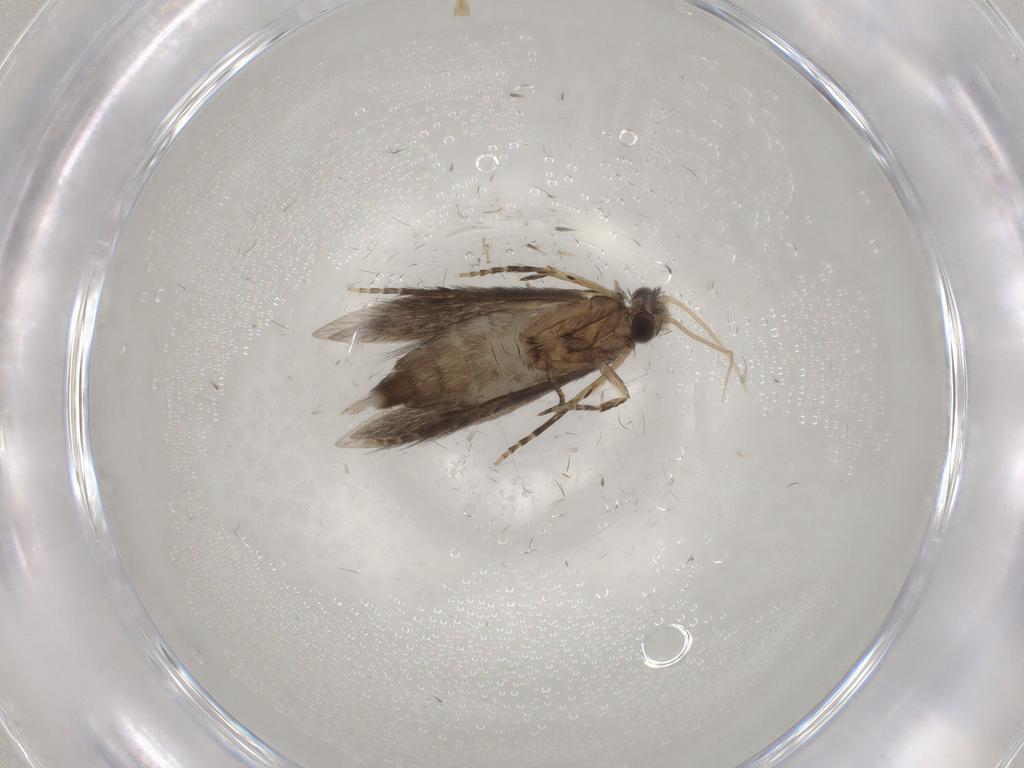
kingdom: Animalia
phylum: Arthropoda
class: Insecta
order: Trichoptera
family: Hydroptilidae
